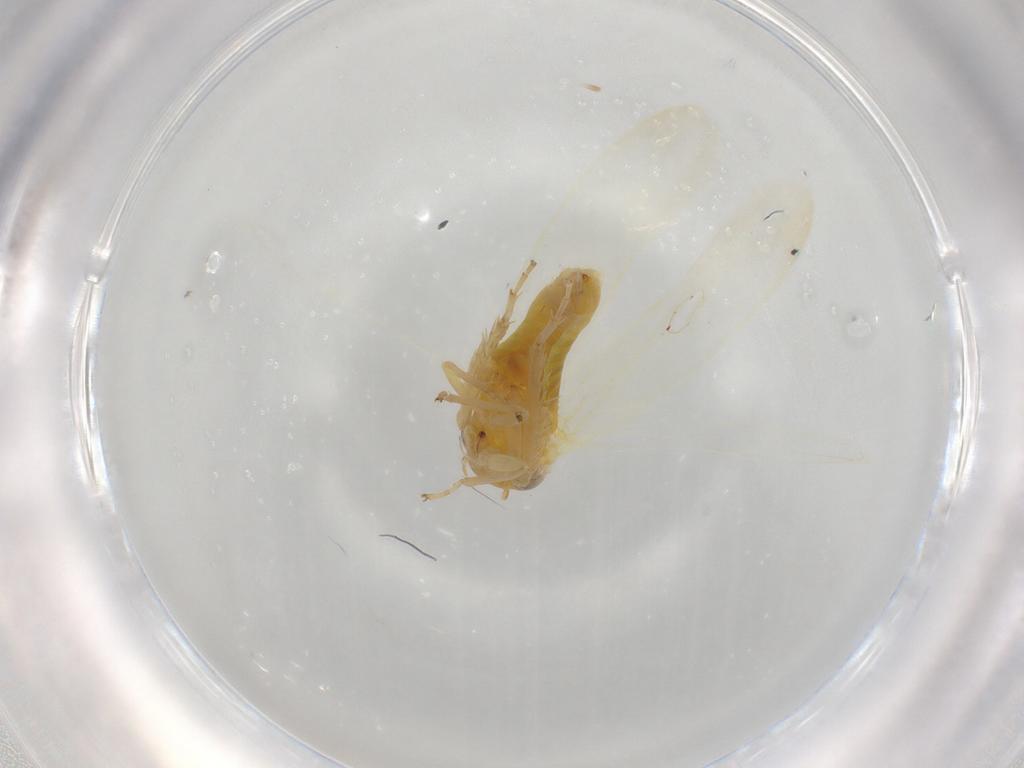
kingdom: Animalia
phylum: Arthropoda
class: Insecta
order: Hemiptera
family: Cicadellidae
